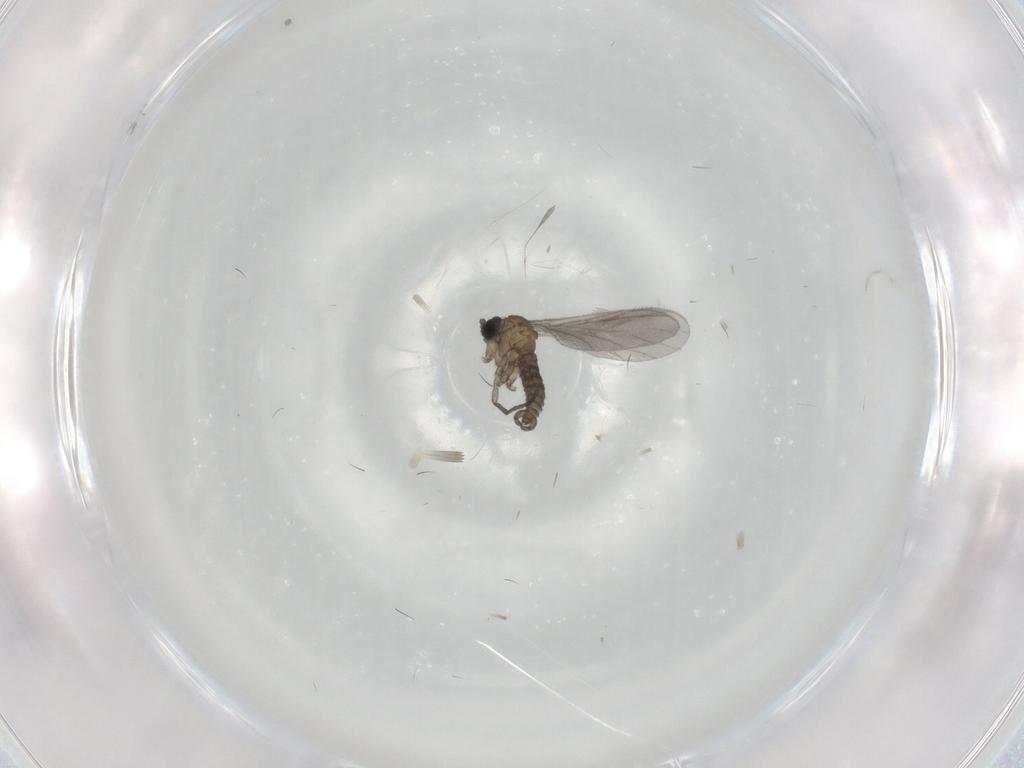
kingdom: Animalia
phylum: Arthropoda
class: Insecta
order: Diptera
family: Sciaridae
